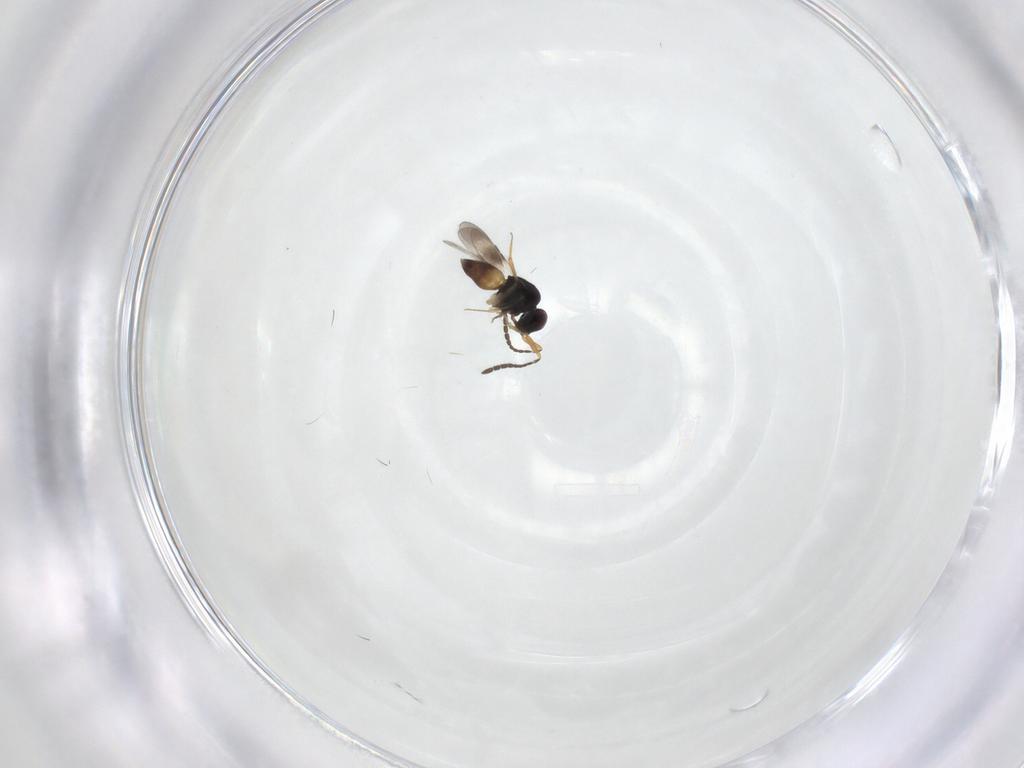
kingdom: Animalia
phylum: Arthropoda
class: Insecta
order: Hymenoptera
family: Ceraphronidae
